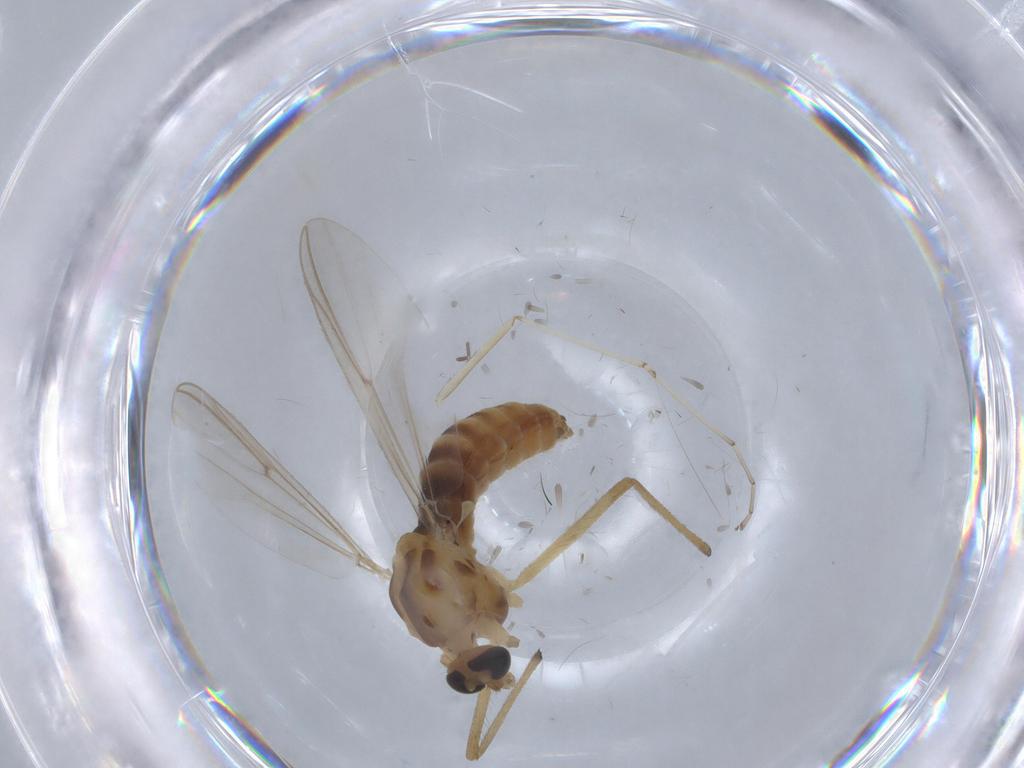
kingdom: Animalia
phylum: Arthropoda
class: Insecta
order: Diptera
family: Chironomidae
